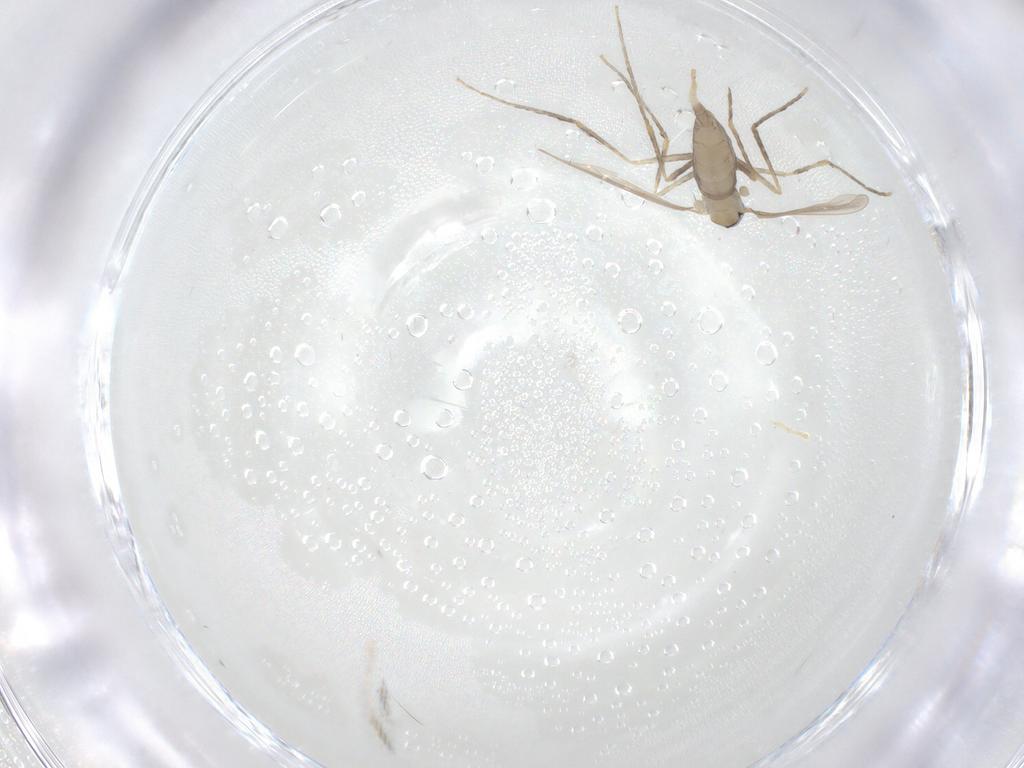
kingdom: Animalia
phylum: Arthropoda
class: Insecta
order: Diptera
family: Cecidomyiidae
